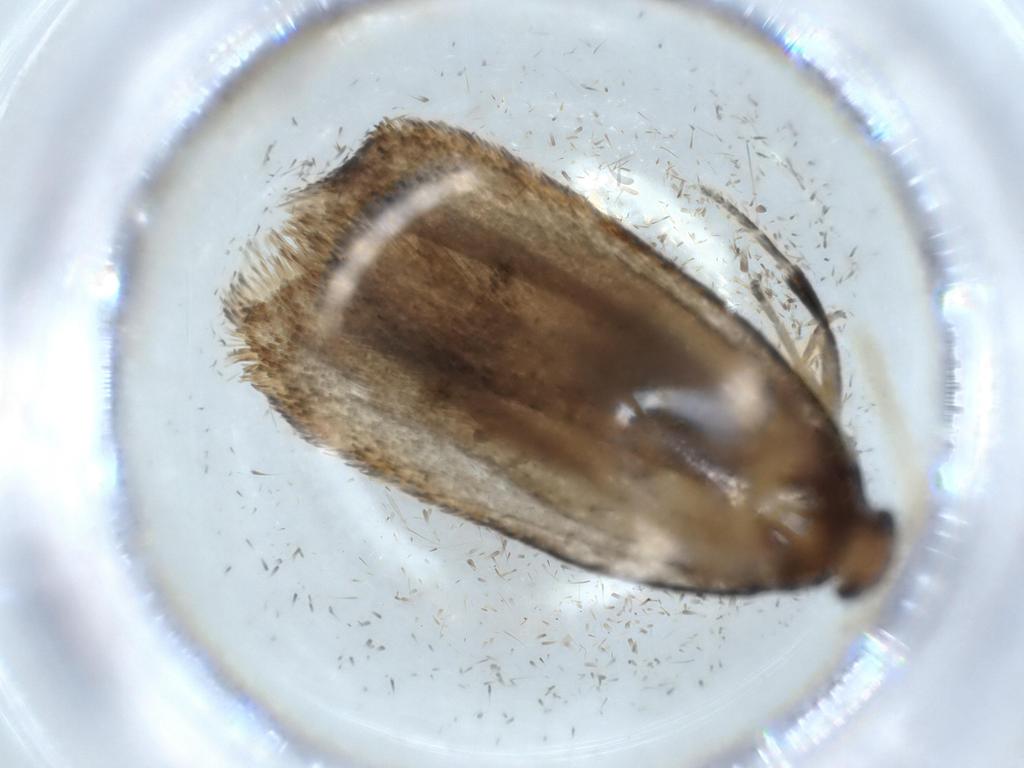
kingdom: Animalia
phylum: Arthropoda
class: Insecta
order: Lepidoptera
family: Lecithoceridae
